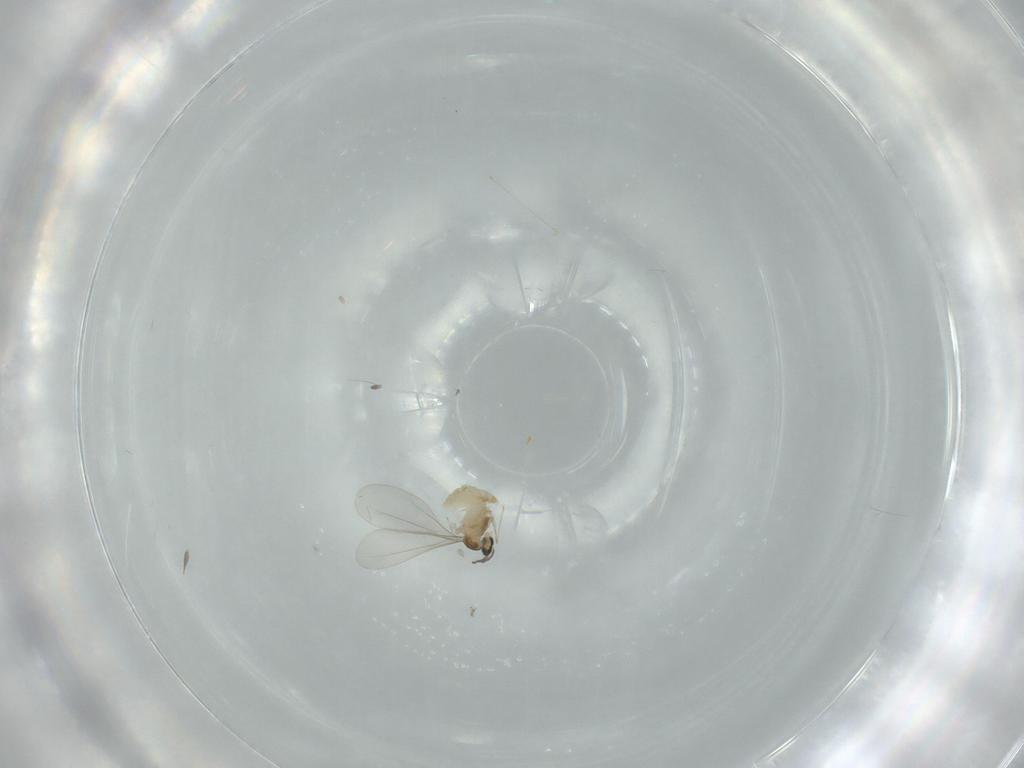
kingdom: Animalia
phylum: Arthropoda
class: Insecta
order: Diptera
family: Cecidomyiidae
